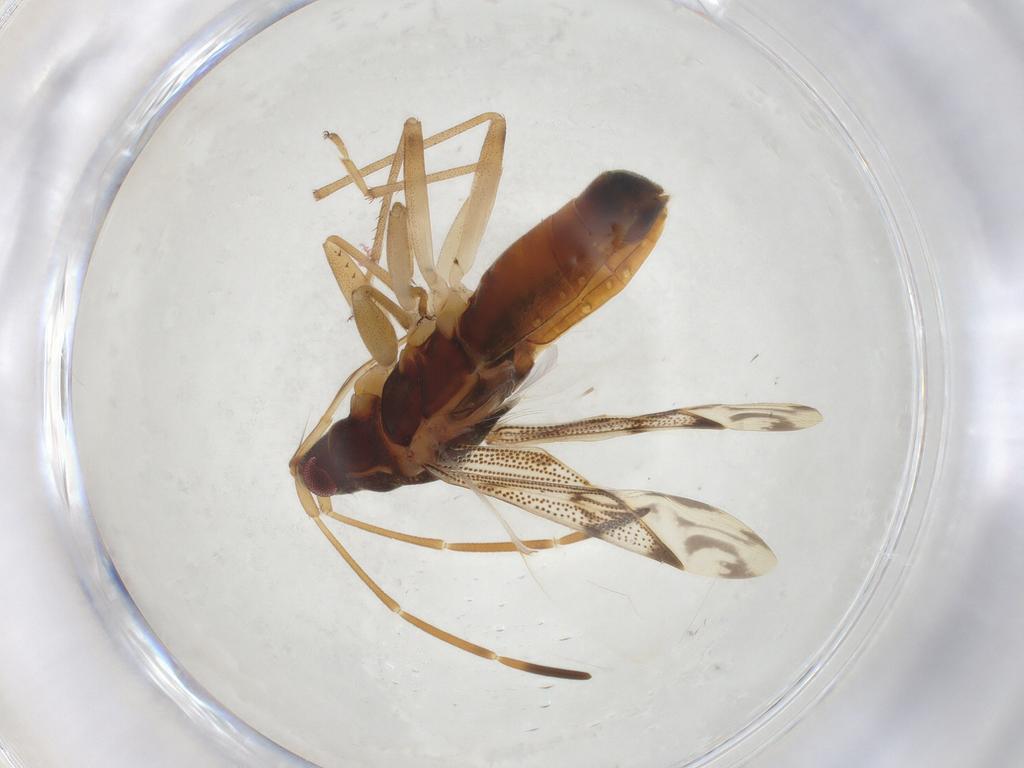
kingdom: Animalia
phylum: Arthropoda
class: Insecta
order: Hemiptera
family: Rhyparochromidae
